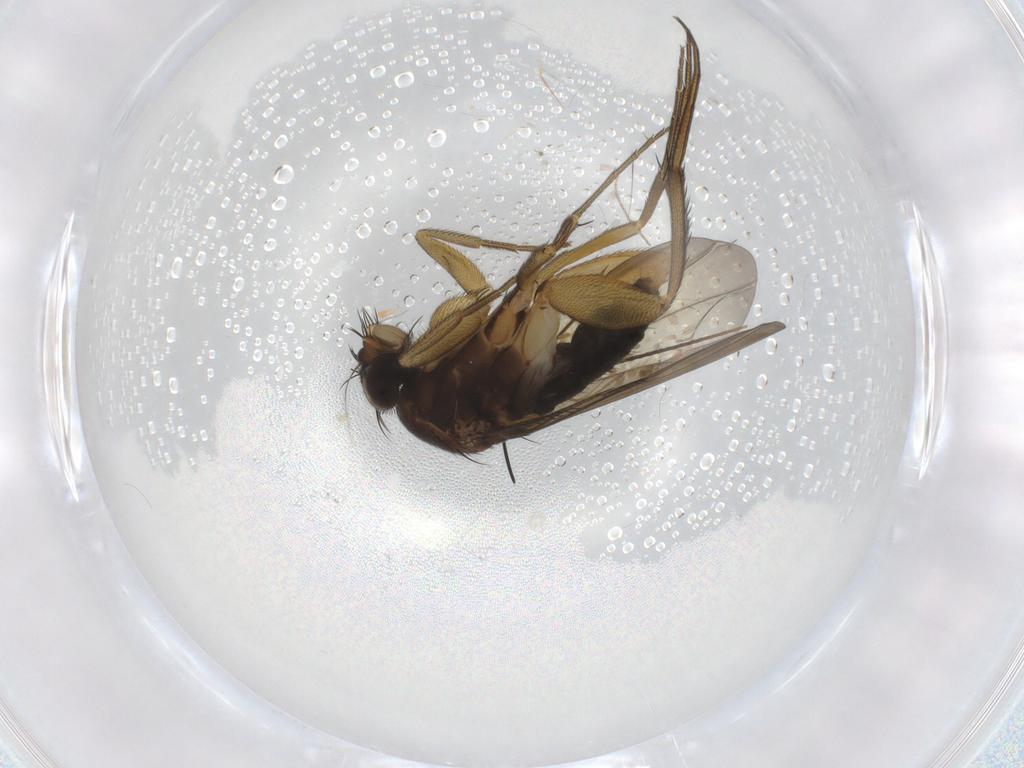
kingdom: Animalia
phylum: Arthropoda
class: Insecta
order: Diptera
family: Phoridae
